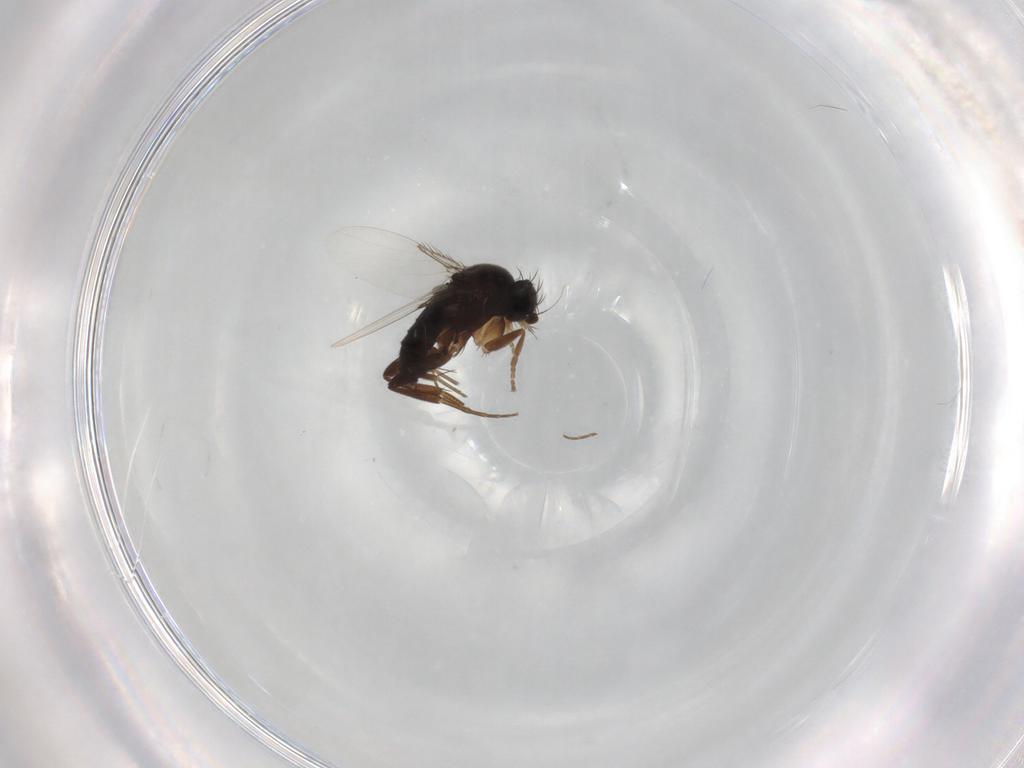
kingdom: Animalia
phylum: Arthropoda
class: Insecta
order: Diptera
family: Phoridae
